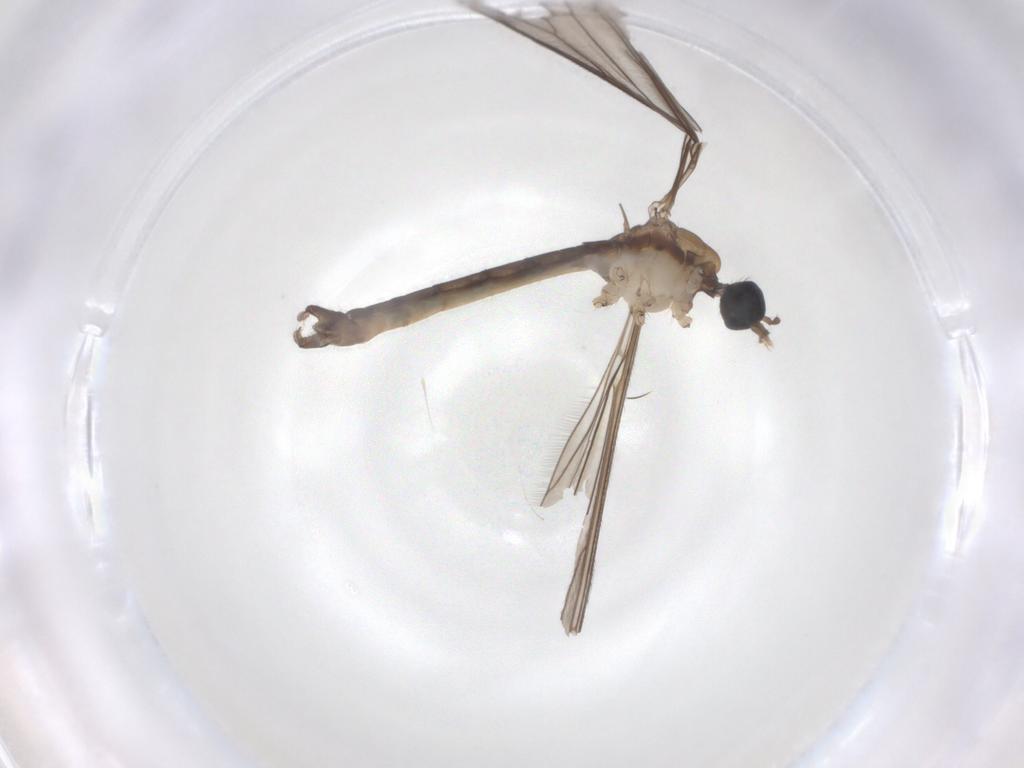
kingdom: Animalia
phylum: Arthropoda
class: Insecta
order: Diptera
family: Limoniidae
